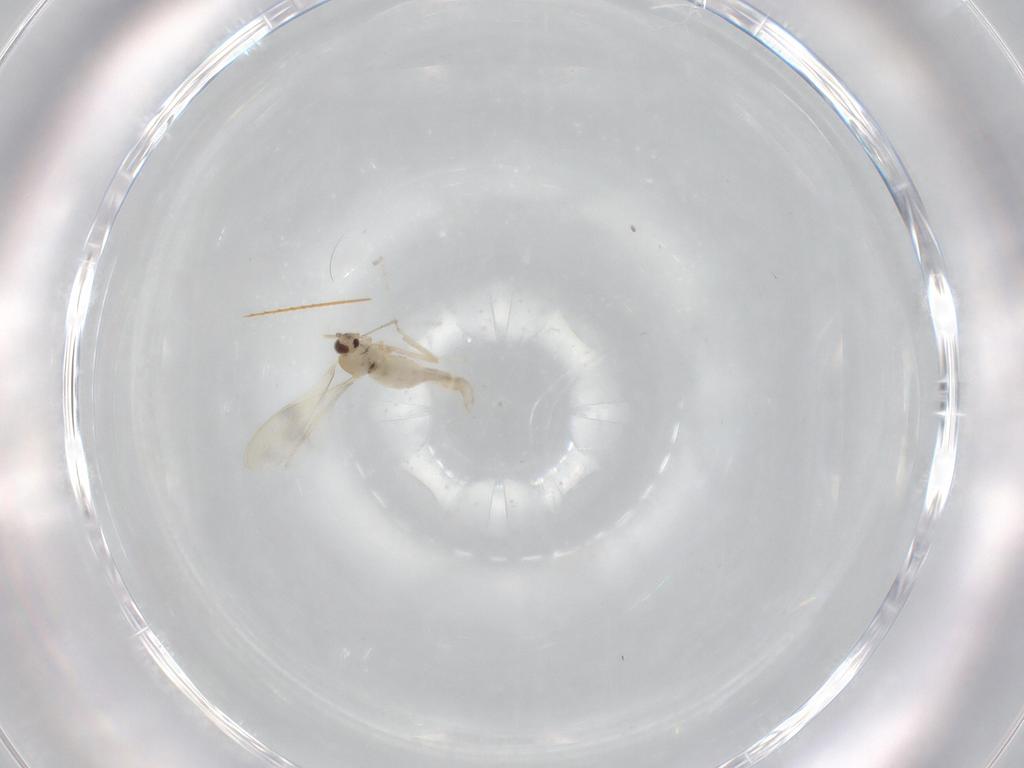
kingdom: Animalia
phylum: Arthropoda
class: Insecta
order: Diptera
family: Cecidomyiidae
